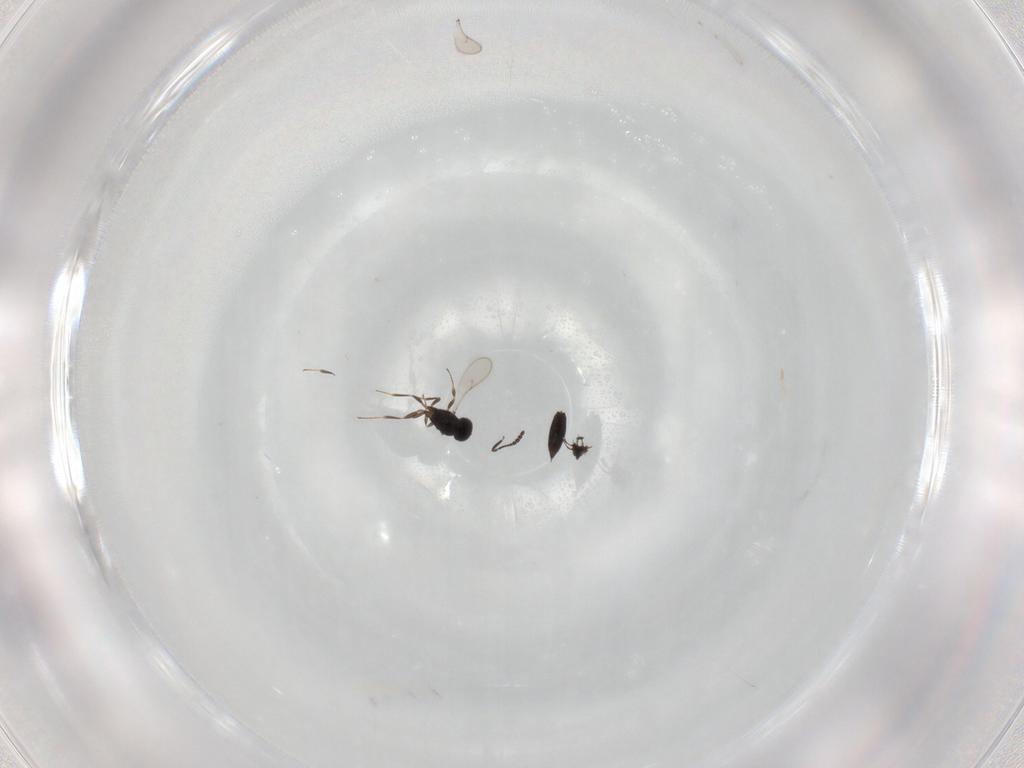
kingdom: Animalia
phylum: Arthropoda
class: Insecta
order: Hymenoptera
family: Scelionidae
